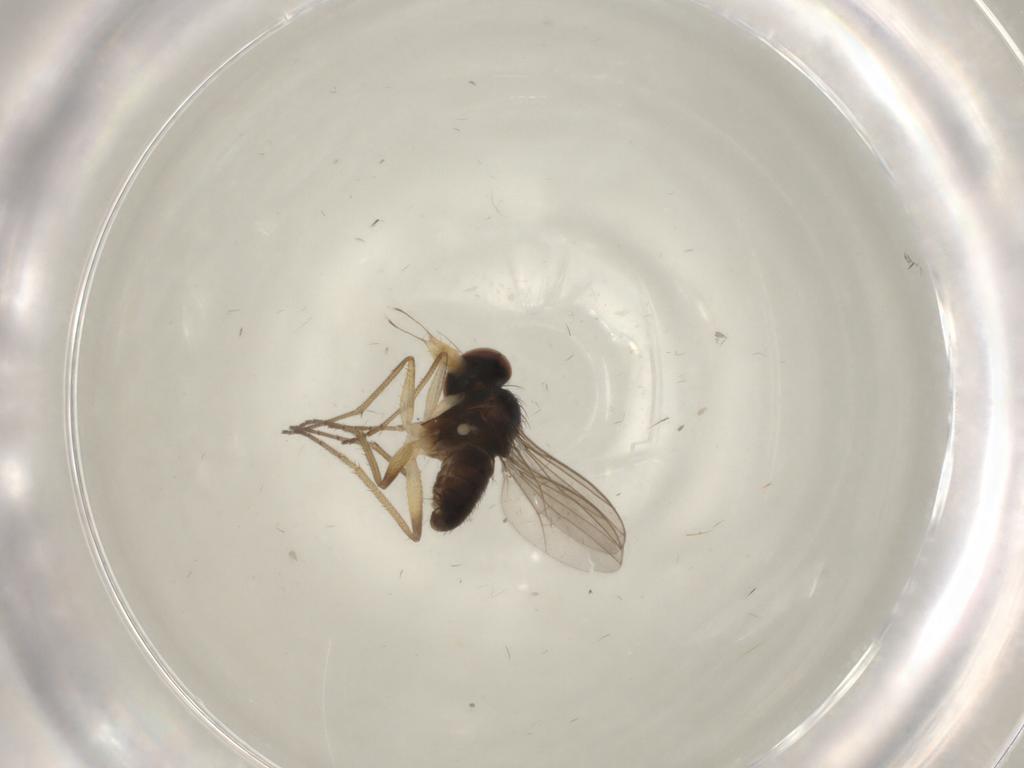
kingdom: Animalia
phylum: Arthropoda
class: Insecta
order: Diptera
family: Dolichopodidae
